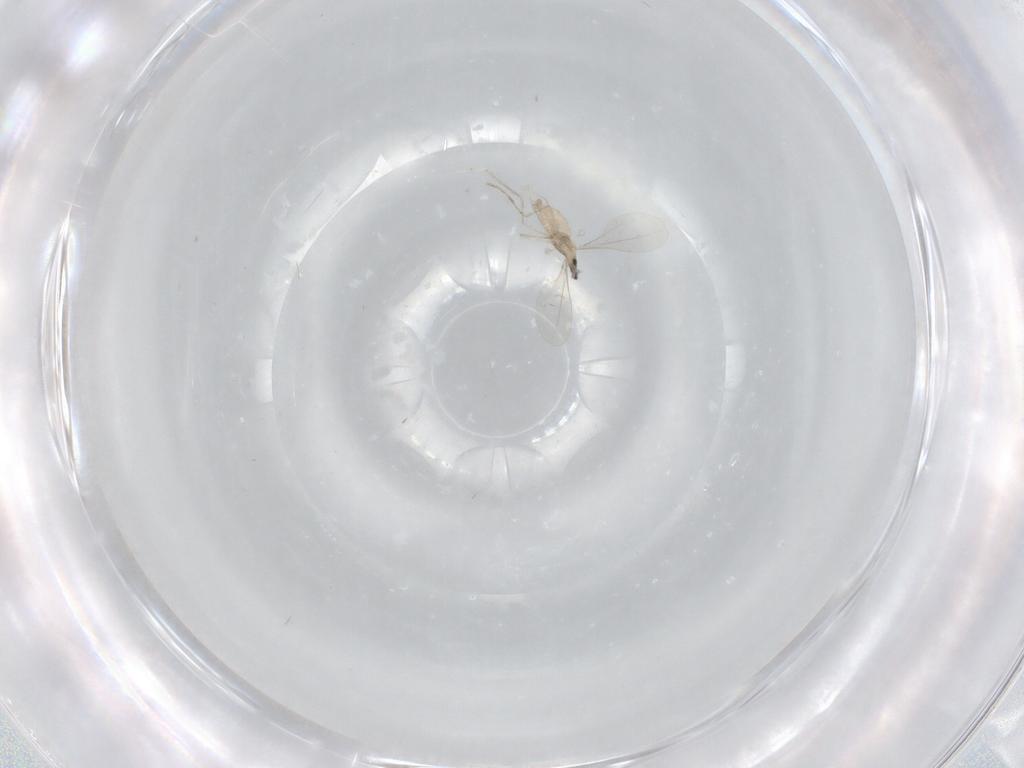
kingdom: Animalia
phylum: Arthropoda
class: Insecta
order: Diptera
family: Cecidomyiidae
